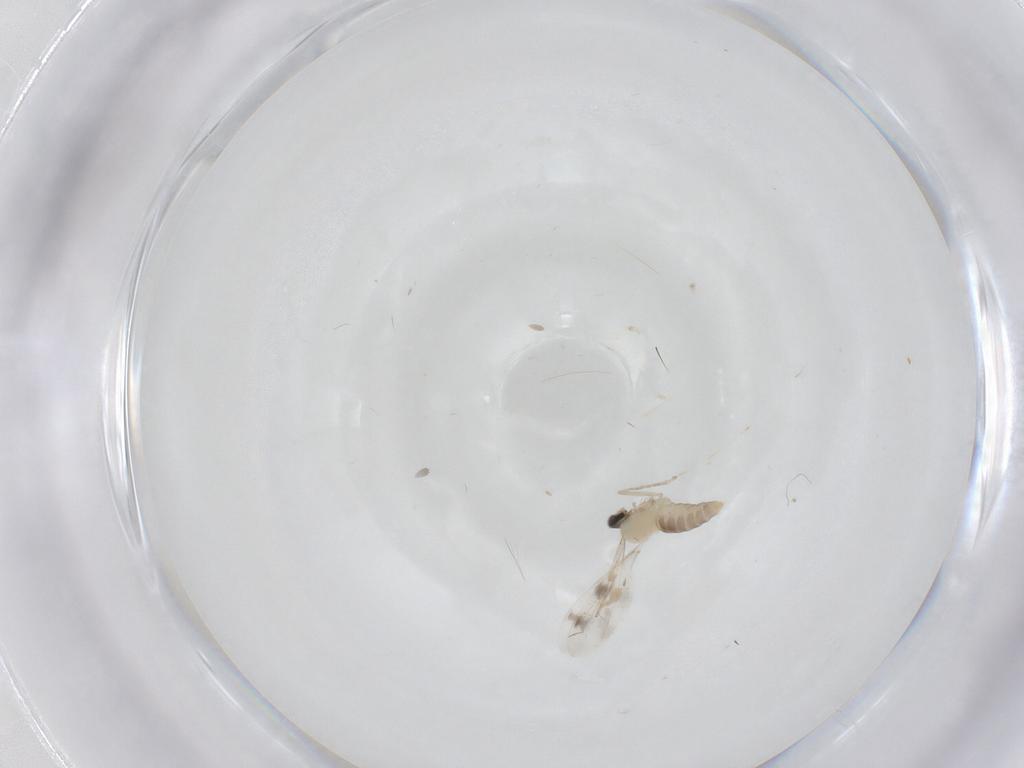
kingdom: Animalia
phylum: Arthropoda
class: Insecta
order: Diptera
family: Cecidomyiidae
